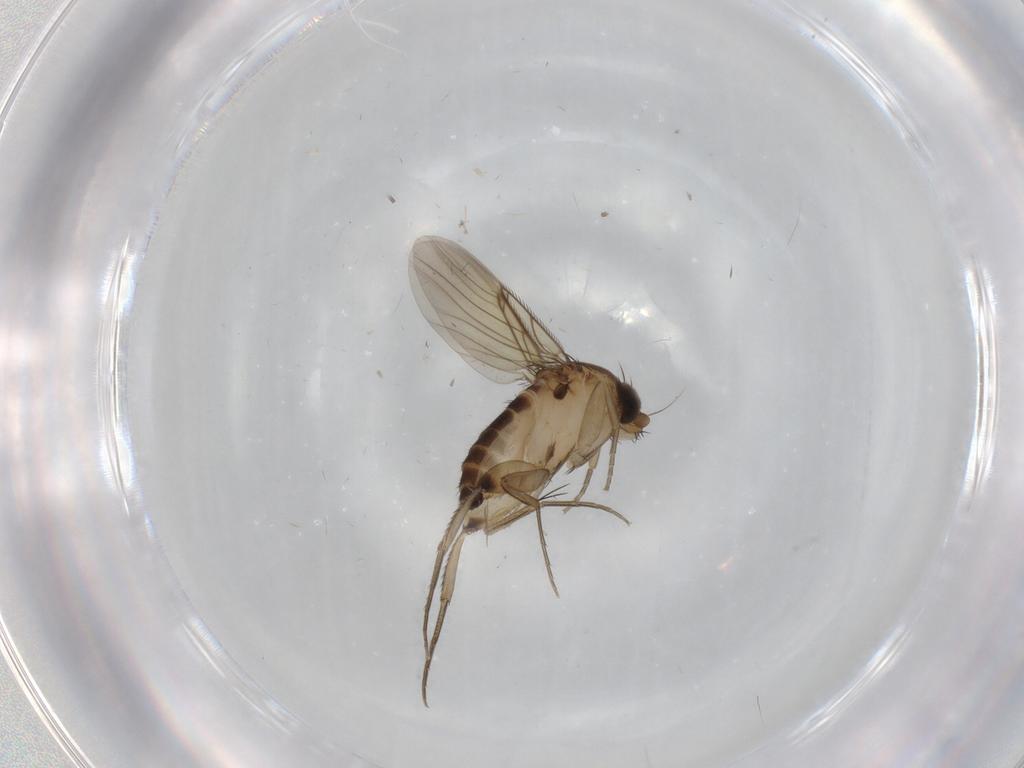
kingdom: Animalia
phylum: Arthropoda
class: Insecta
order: Diptera
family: Chironomidae
